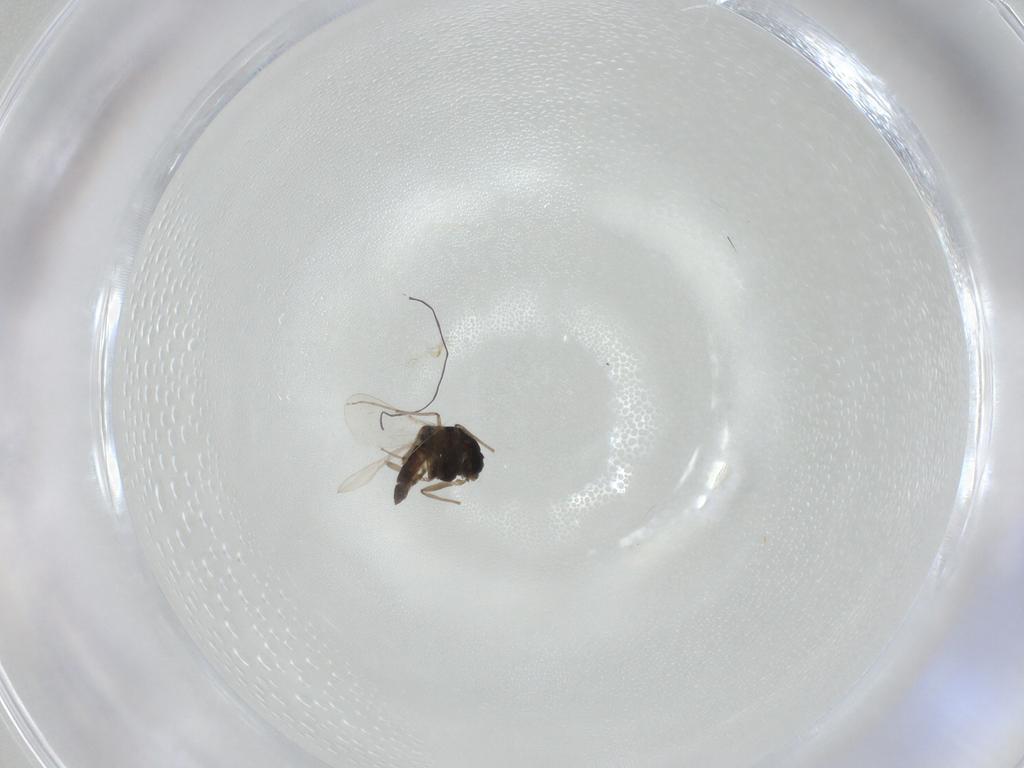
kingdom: Animalia
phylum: Arthropoda
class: Insecta
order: Diptera
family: Chironomidae
